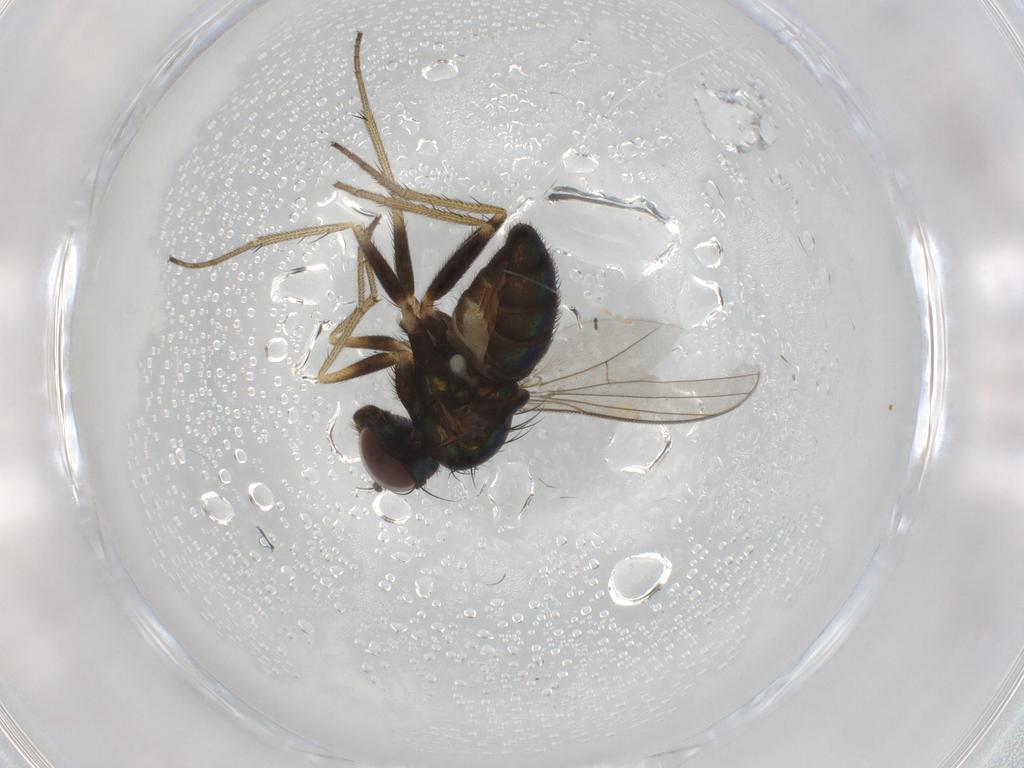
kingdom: Animalia
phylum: Arthropoda
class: Insecta
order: Diptera
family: Dolichopodidae
